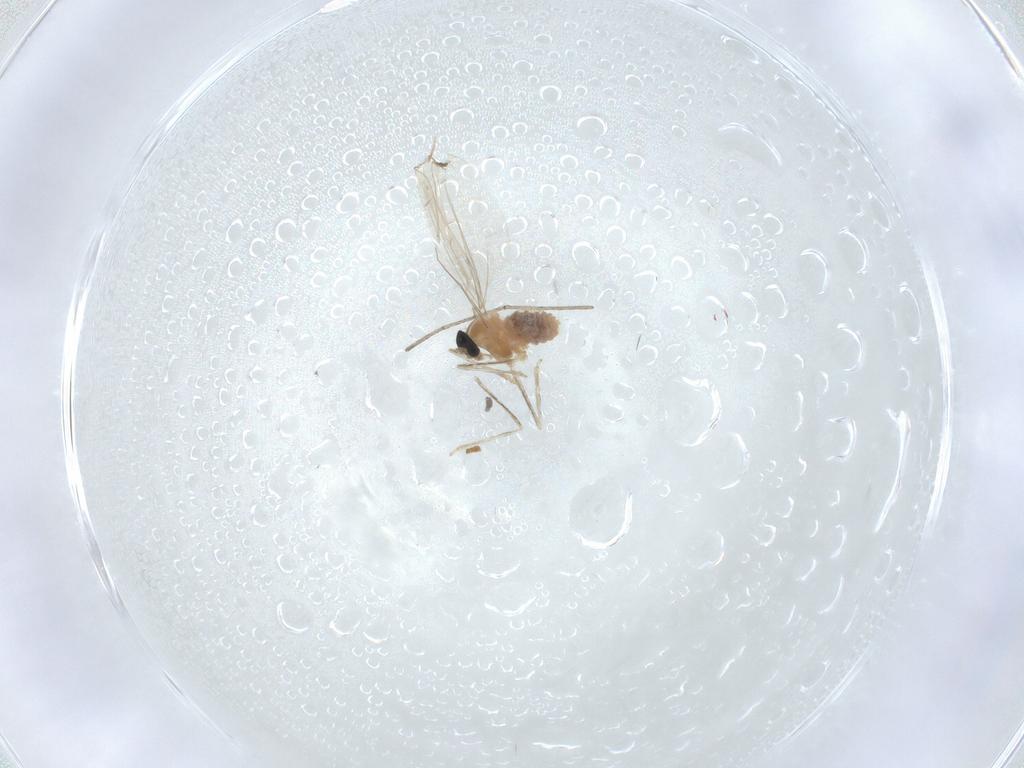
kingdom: Animalia
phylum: Arthropoda
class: Insecta
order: Diptera
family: Cecidomyiidae
